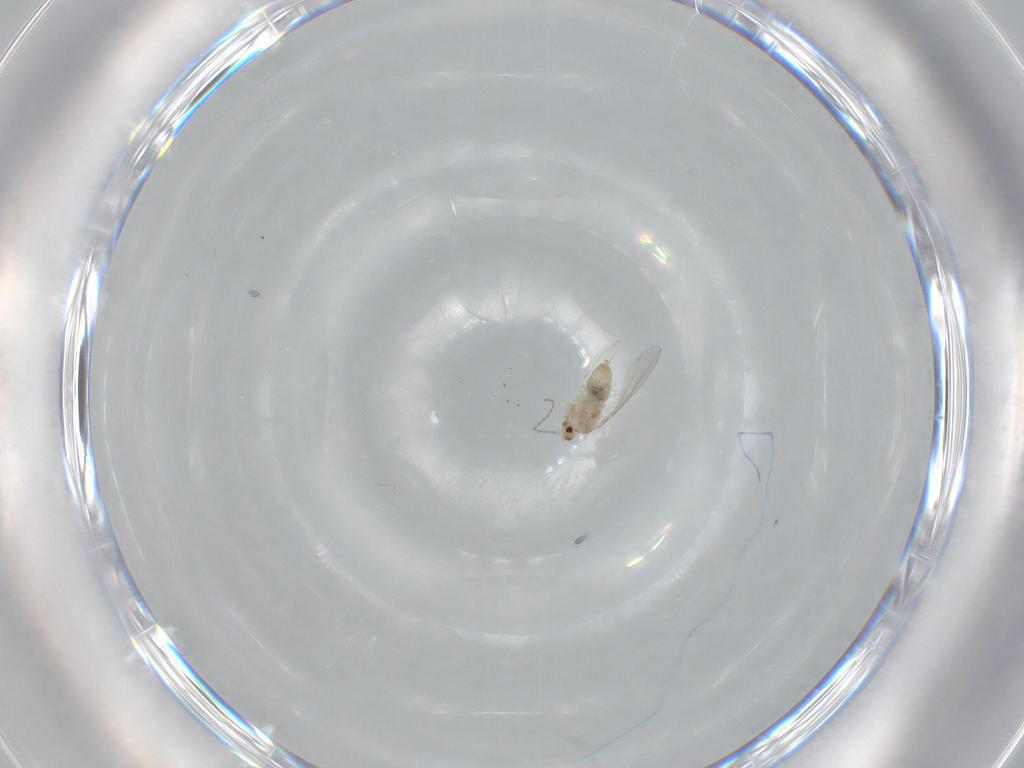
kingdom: Animalia
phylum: Arthropoda
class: Insecta
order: Diptera
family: Cecidomyiidae
